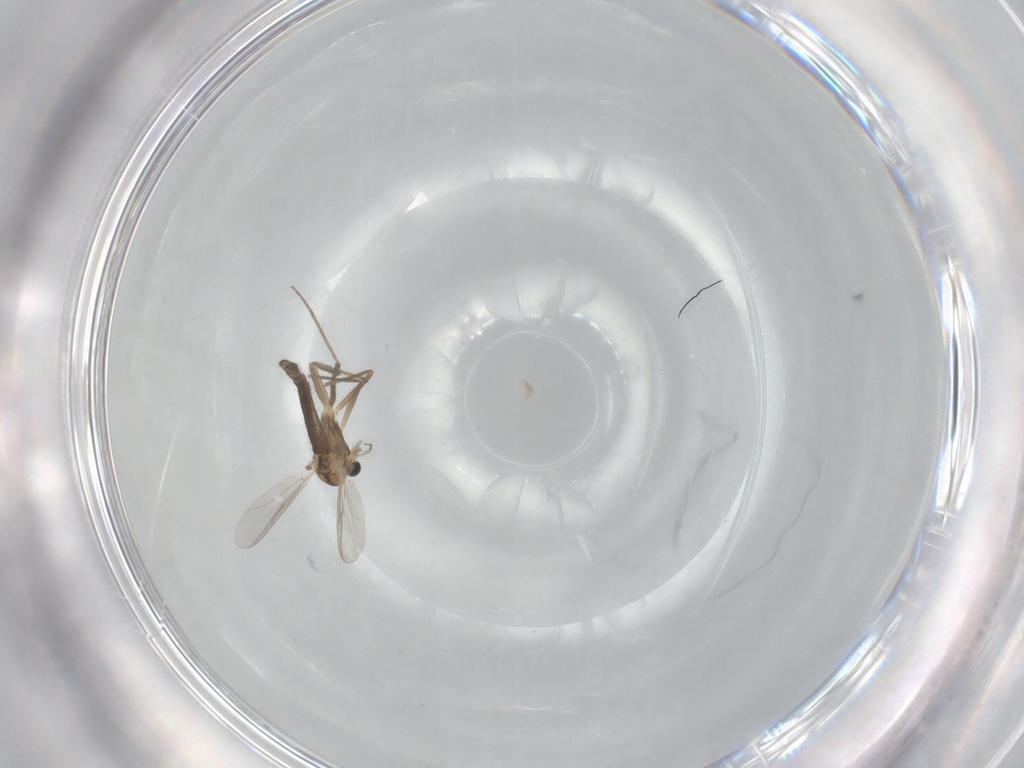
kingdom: Animalia
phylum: Arthropoda
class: Insecta
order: Diptera
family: Chironomidae
